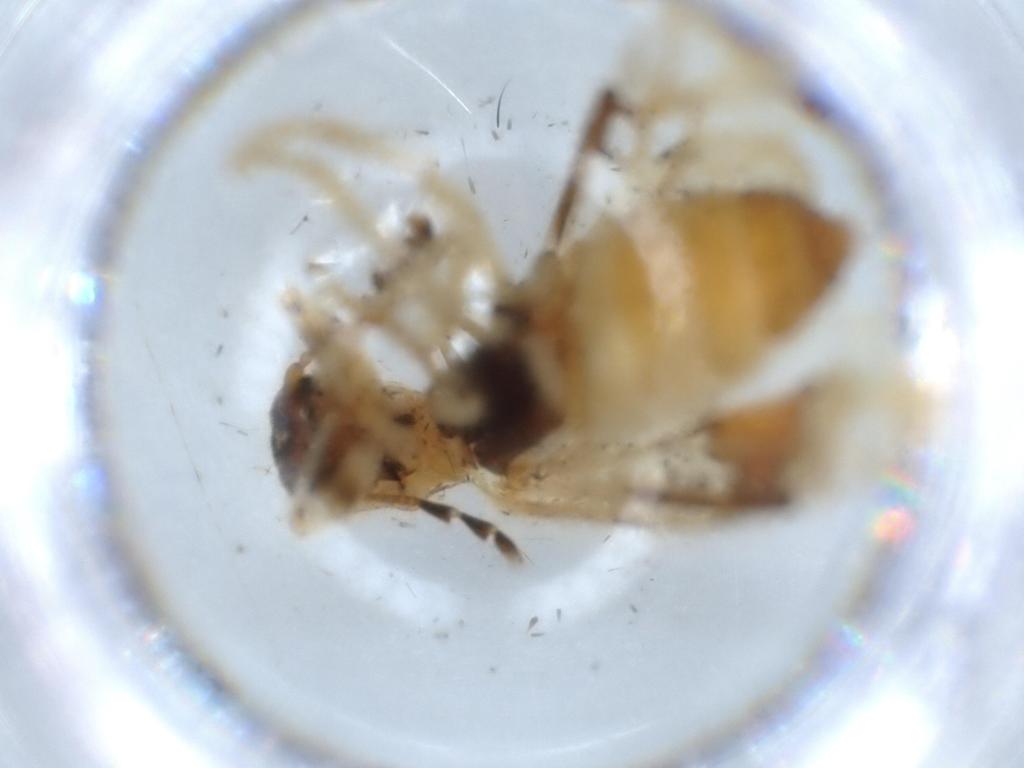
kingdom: Animalia
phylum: Arthropoda
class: Insecta
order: Coleoptera
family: Cleridae
